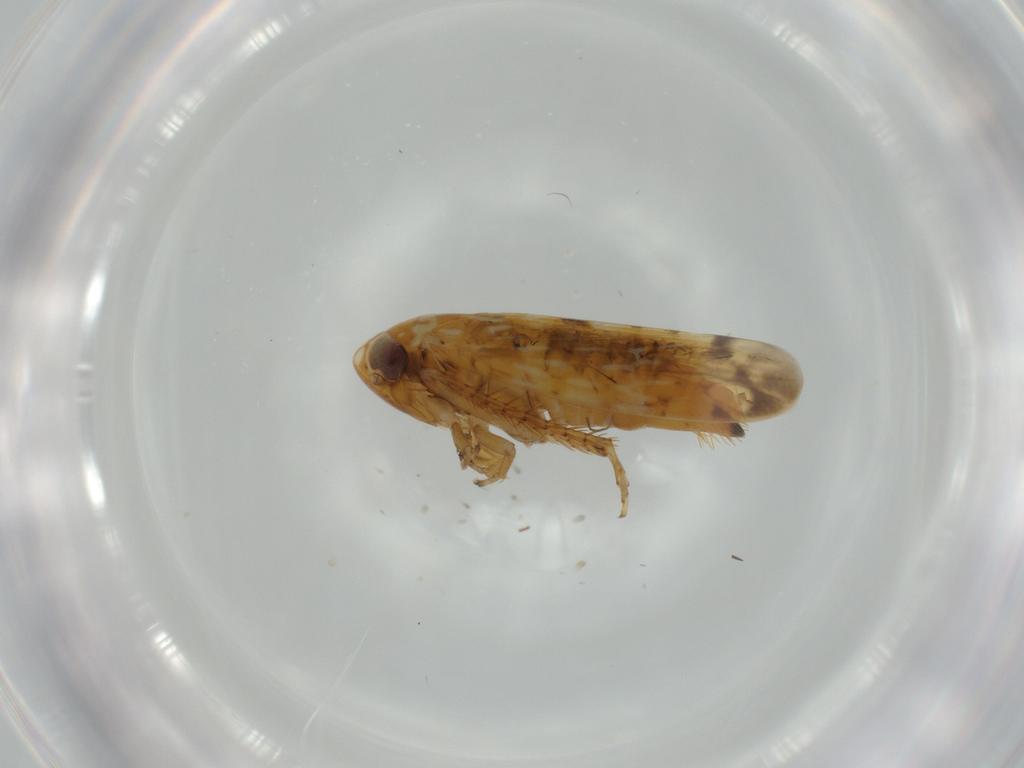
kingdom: Animalia
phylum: Arthropoda
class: Insecta
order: Hemiptera
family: Cicadellidae
